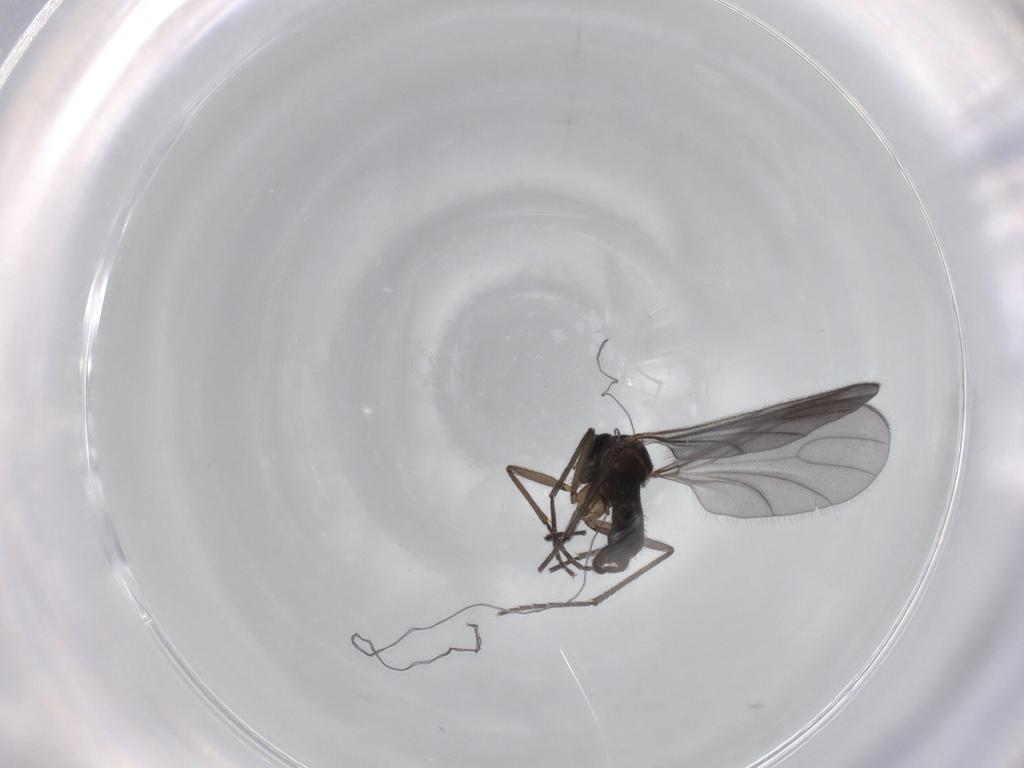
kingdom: Animalia
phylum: Arthropoda
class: Insecta
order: Diptera
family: Sciaridae
